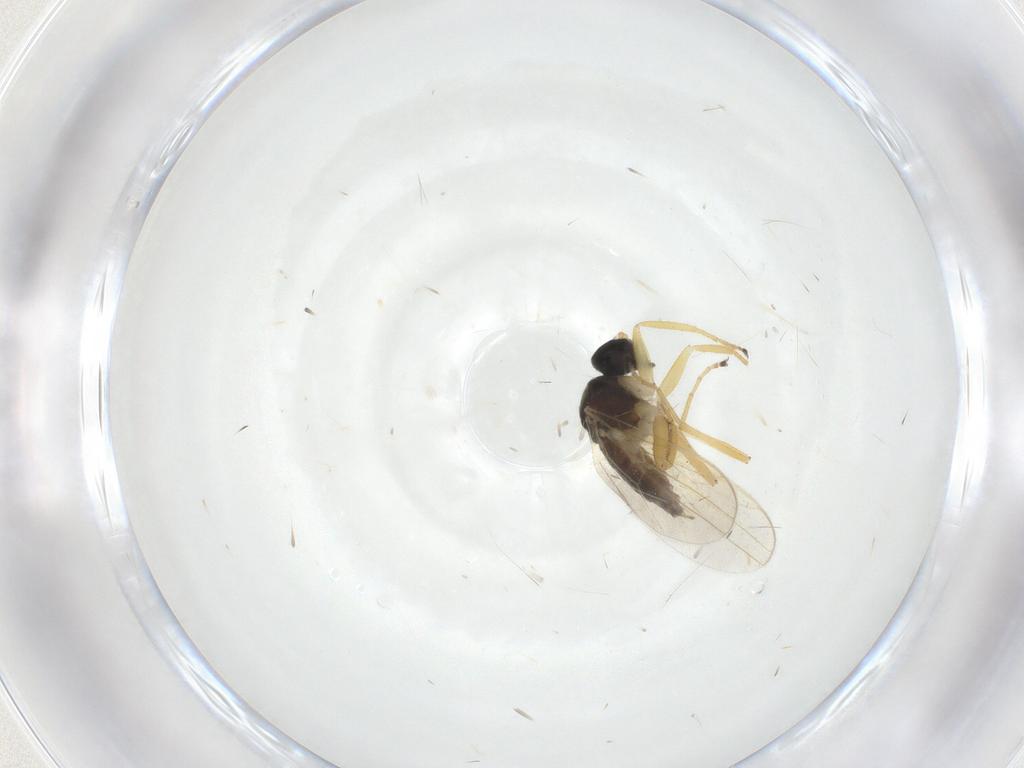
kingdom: Animalia
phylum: Arthropoda
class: Insecta
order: Diptera
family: Hybotidae
